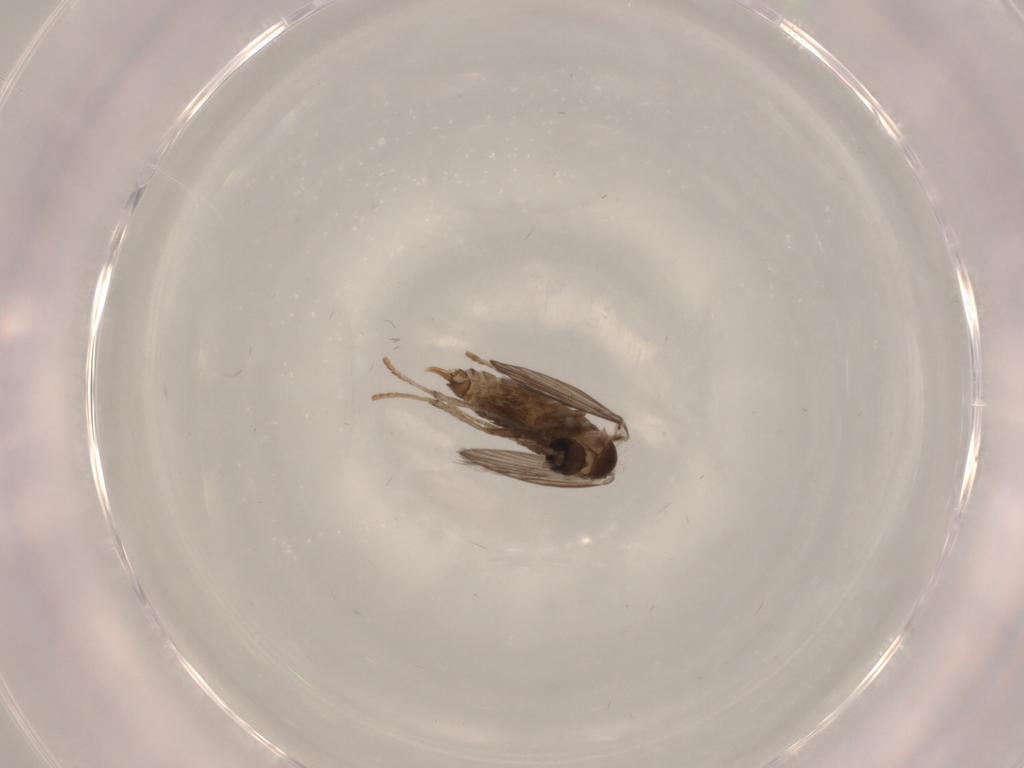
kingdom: Animalia
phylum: Arthropoda
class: Insecta
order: Diptera
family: Psychodidae
